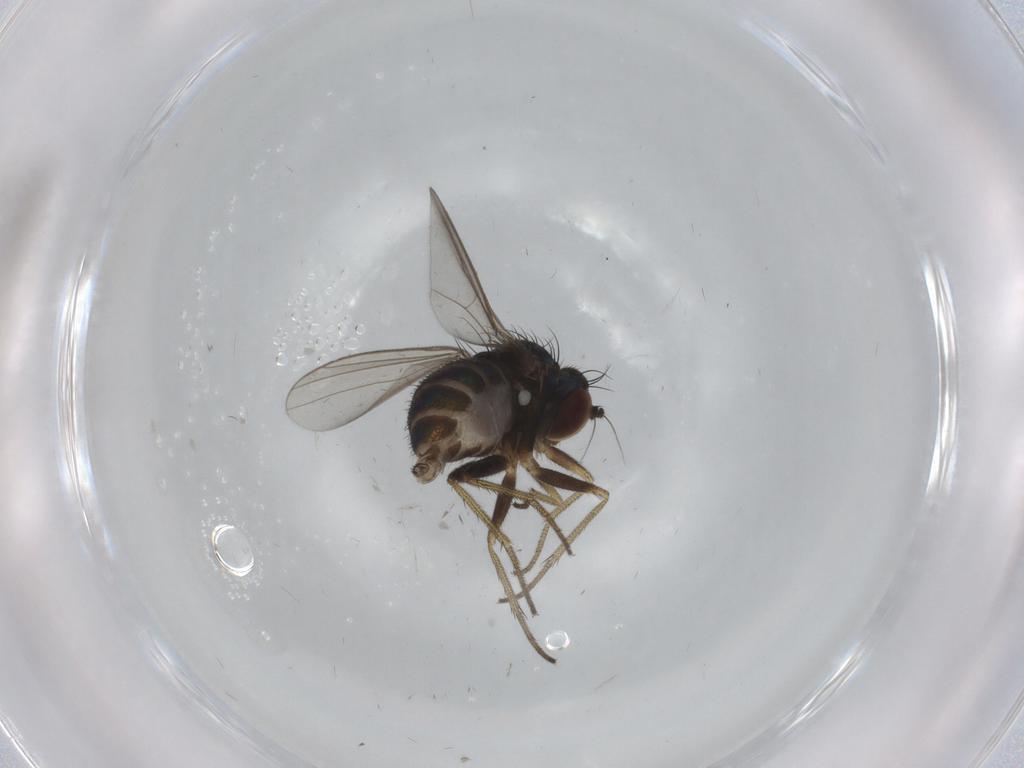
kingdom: Animalia
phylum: Arthropoda
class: Insecta
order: Diptera
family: Dolichopodidae
